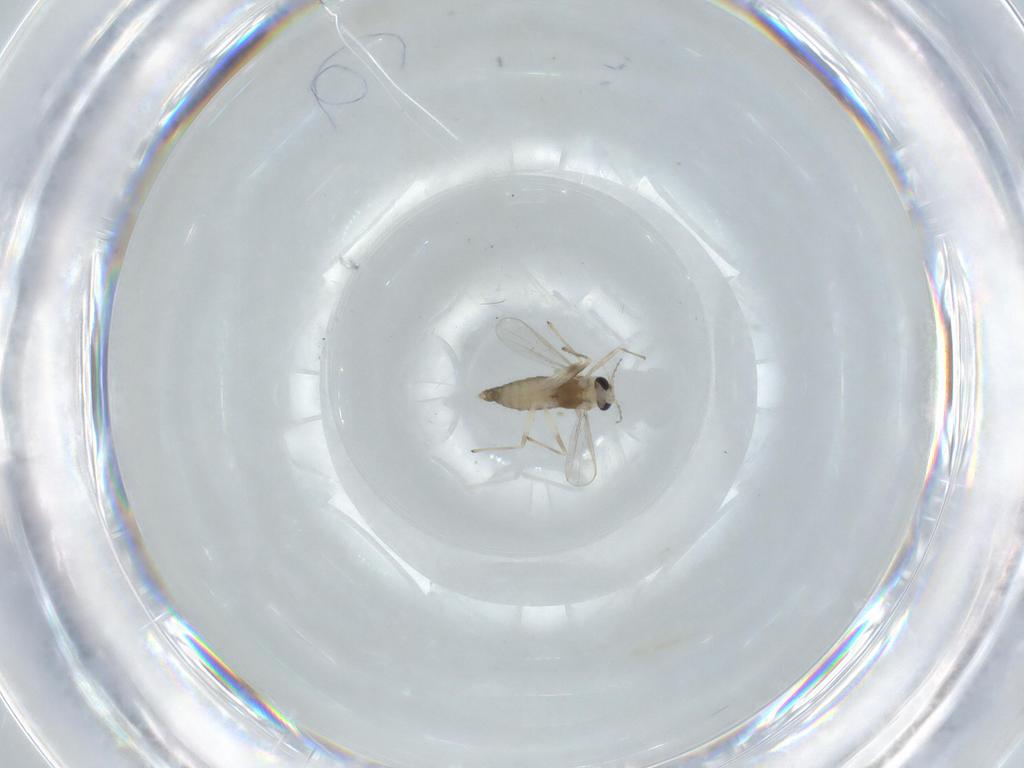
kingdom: Animalia
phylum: Arthropoda
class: Insecta
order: Diptera
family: Chironomidae
